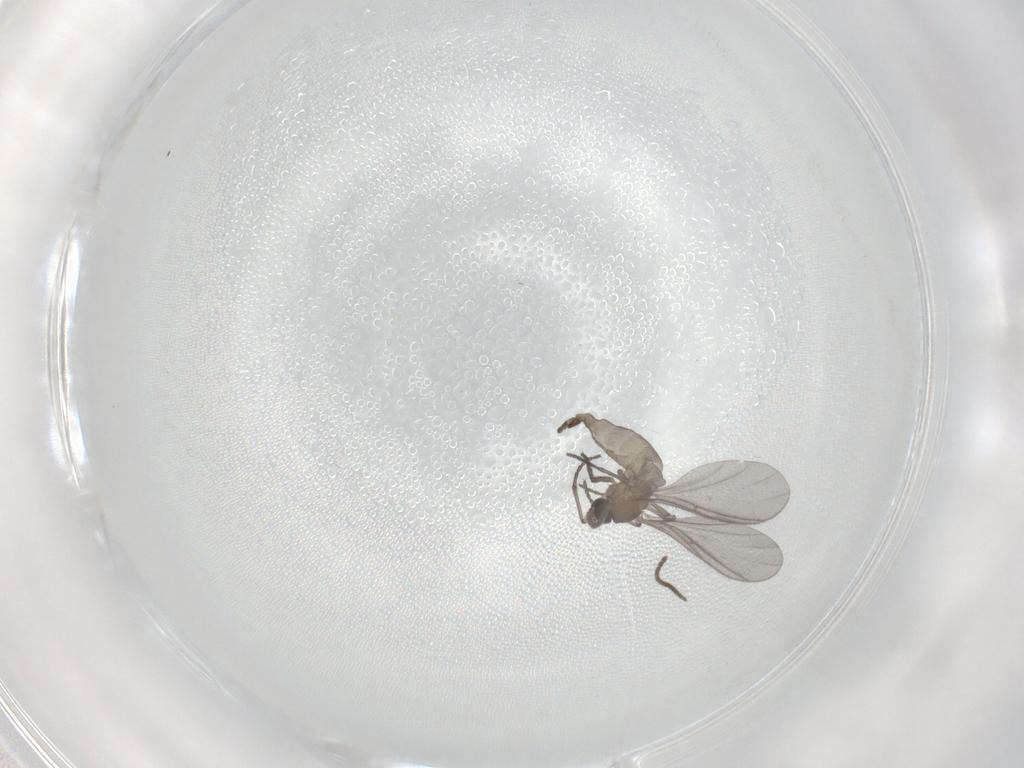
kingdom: Animalia
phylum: Arthropoda
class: Insecta
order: Diptera
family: Sciaridae
